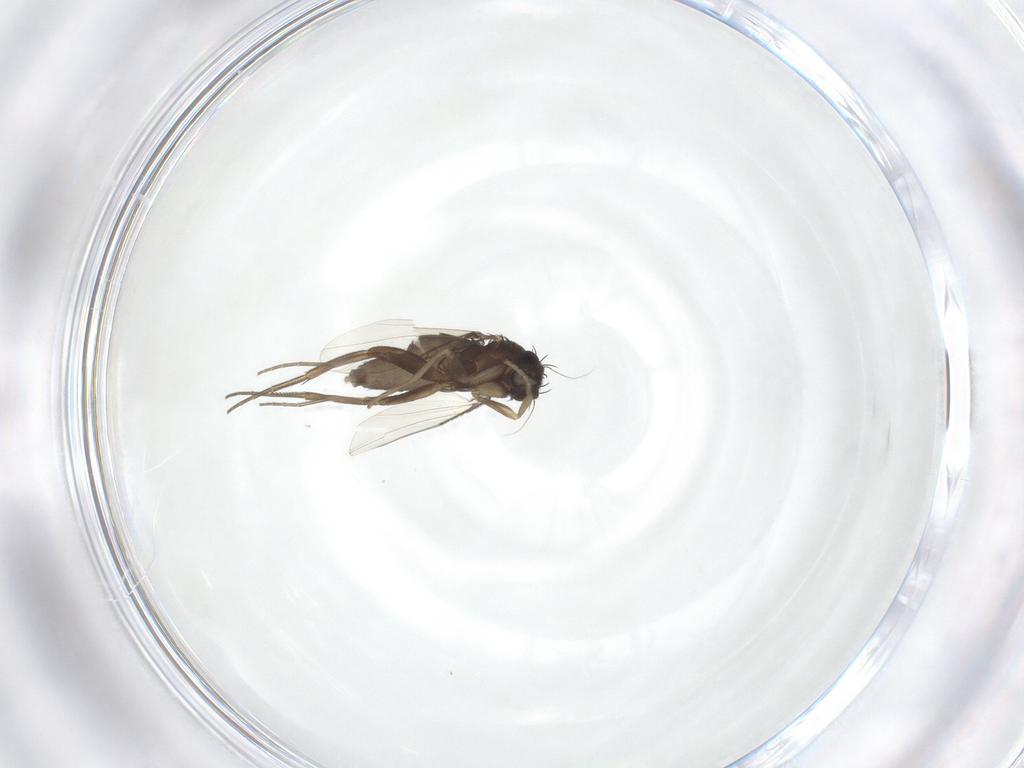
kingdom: Animalia
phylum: Arthropoda
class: Insecta
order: Diptera
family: Phoridae
